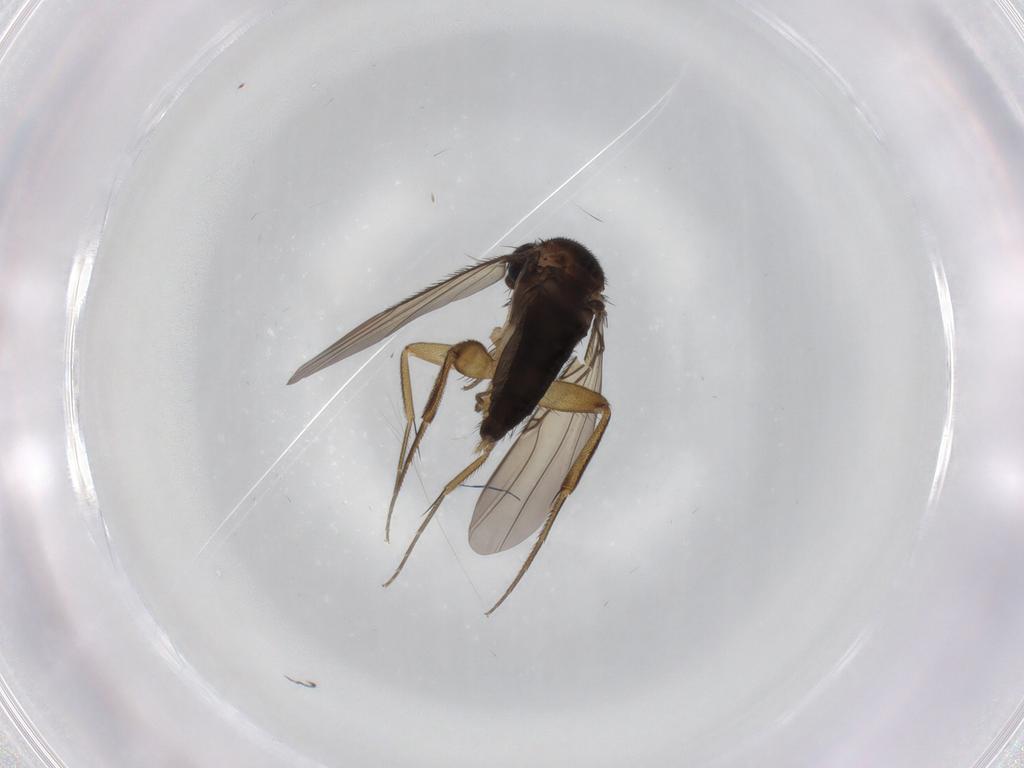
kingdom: Animalia
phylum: Arthropoda
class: Insecta
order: Diptera
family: Phoridae
